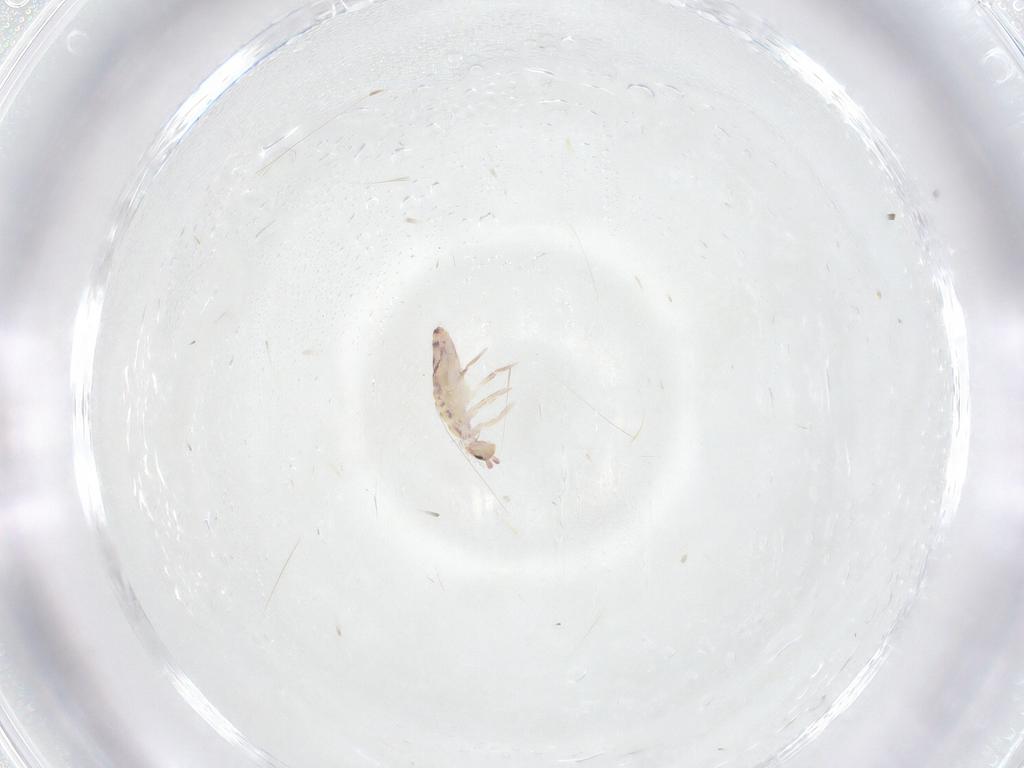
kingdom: Animalia
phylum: Arthropoda
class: Collembola
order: Entomobryomorpha
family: Entomobryidae
